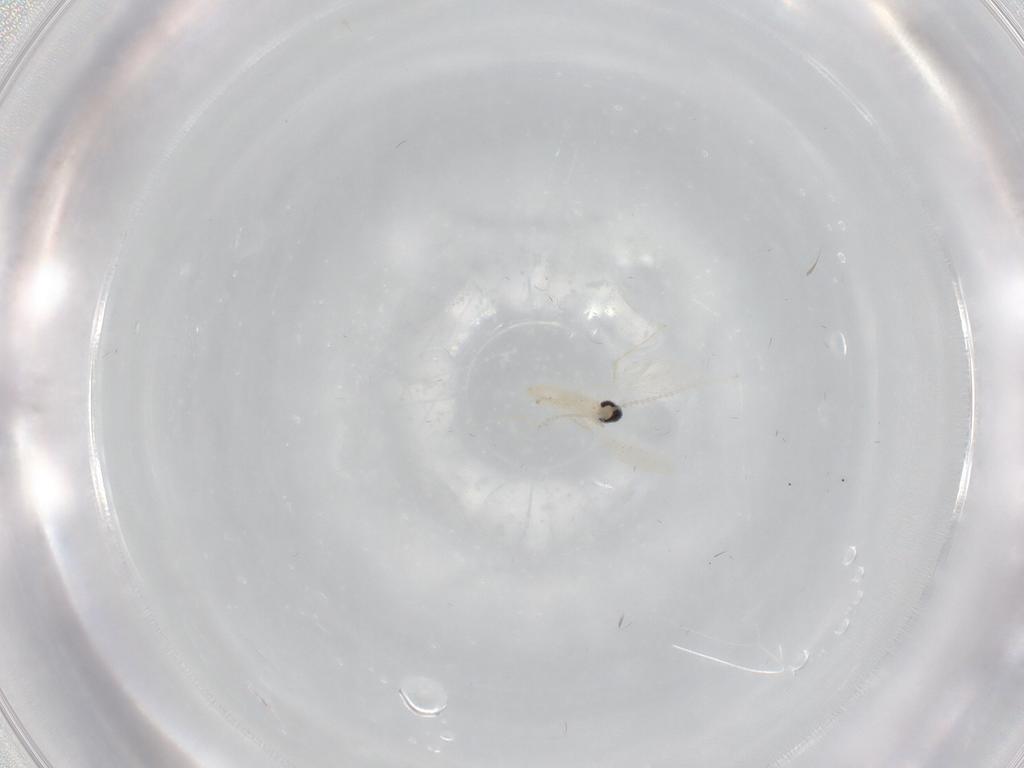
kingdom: Animalia
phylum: Arthropoda
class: Insecta
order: Diptera
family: Cecidomyiidae
